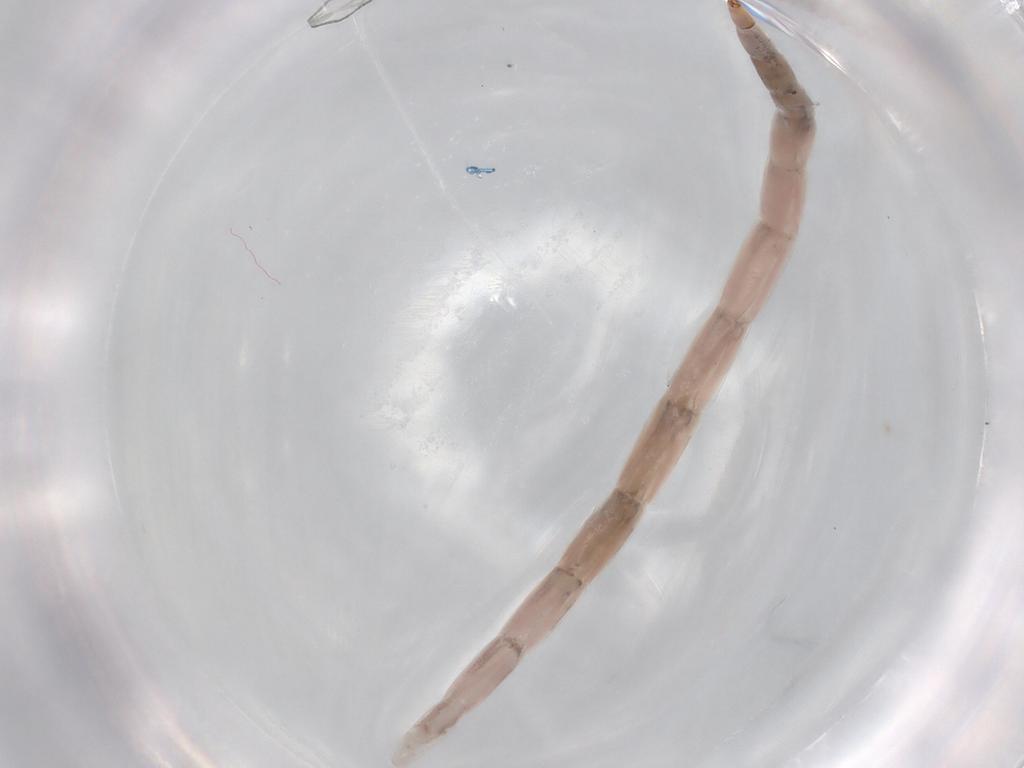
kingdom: Animalia
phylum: Arthropoda
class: Insecta
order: Diptera
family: Ceratopogonidae
